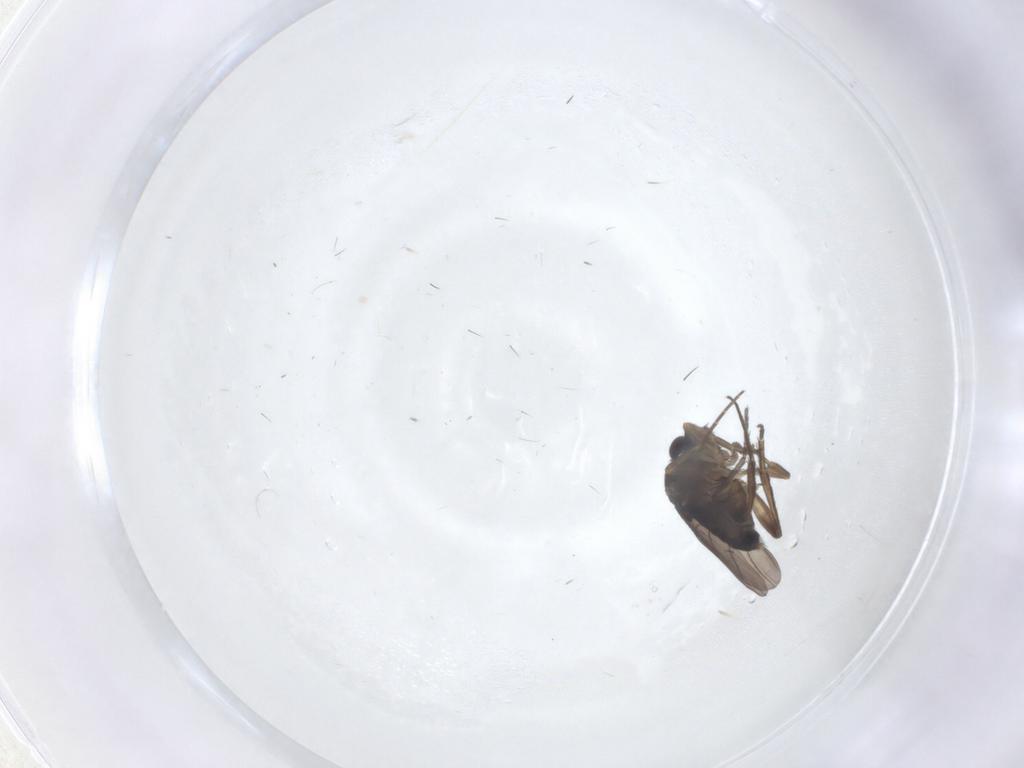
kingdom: Animalia
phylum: Arthropoda
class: Insecta
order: Diptera
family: Phoridae
